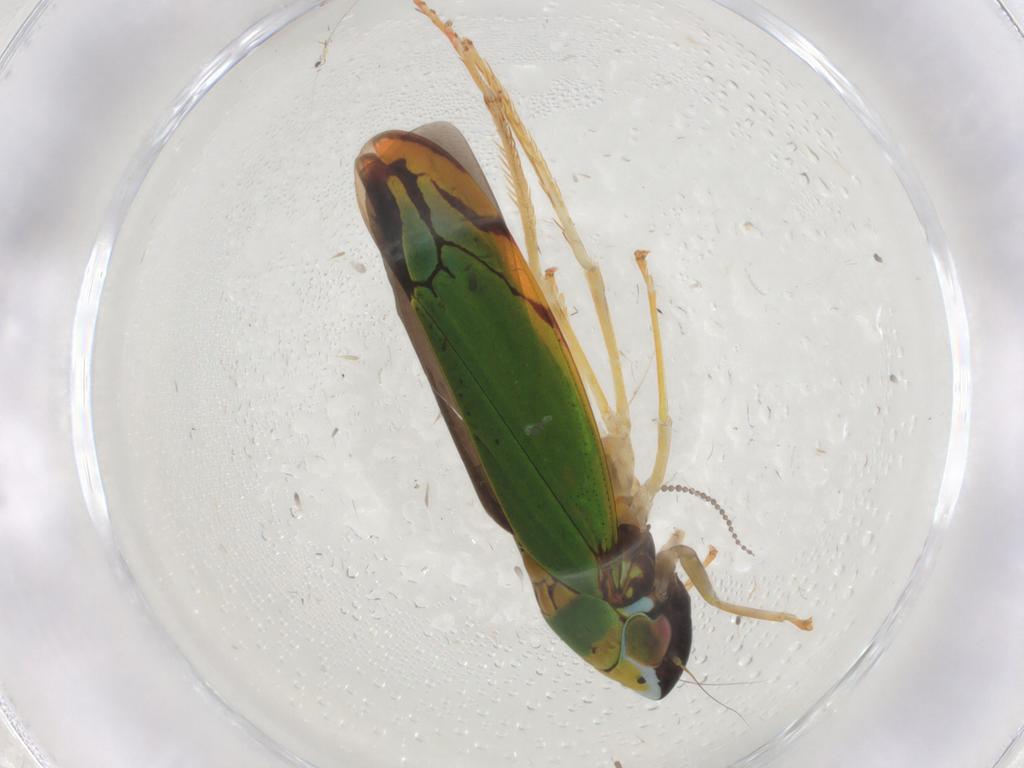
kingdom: Animalia
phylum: Arthropoda
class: Insecta
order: Hemiptera
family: Cicadellidae
